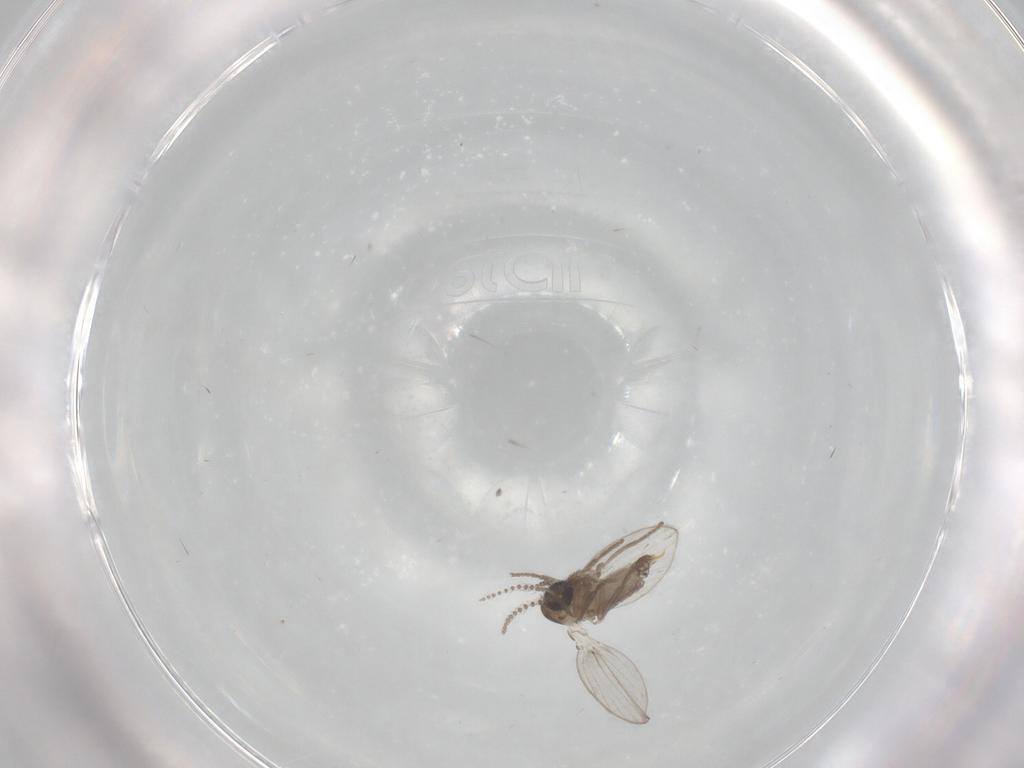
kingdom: Animalia
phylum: Arthropoda
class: Insecta
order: Diptera
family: Psychodidae
